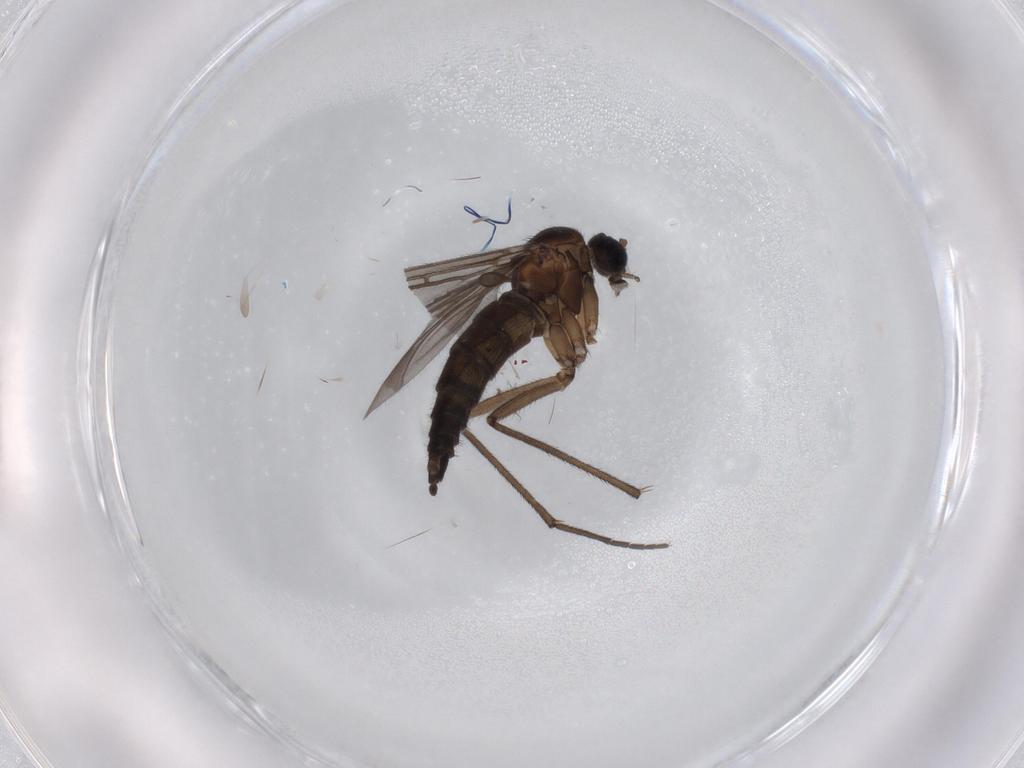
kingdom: Animalia
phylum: Arthropoda
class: Insecta
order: Diptera
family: Sciaridae
